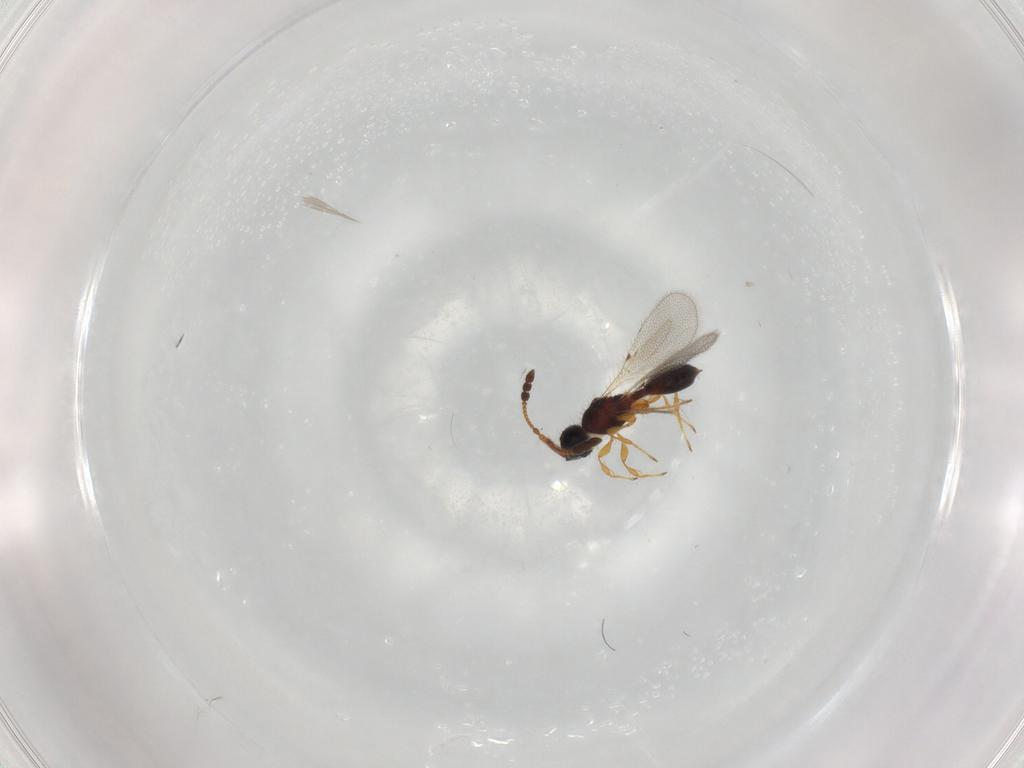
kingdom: Animalia
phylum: Arthropoda
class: Insecta
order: Hymenoptera
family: Diapriidae
